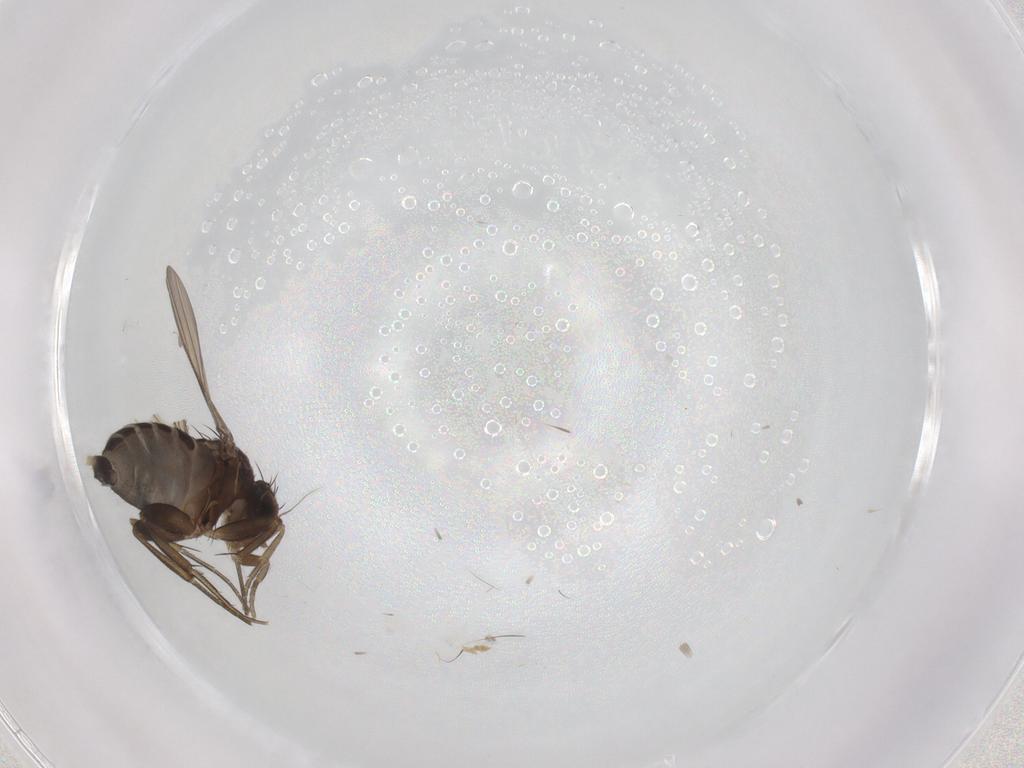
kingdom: Animalia
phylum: Arthropoda
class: Insecta
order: Diptera
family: Phoridae
